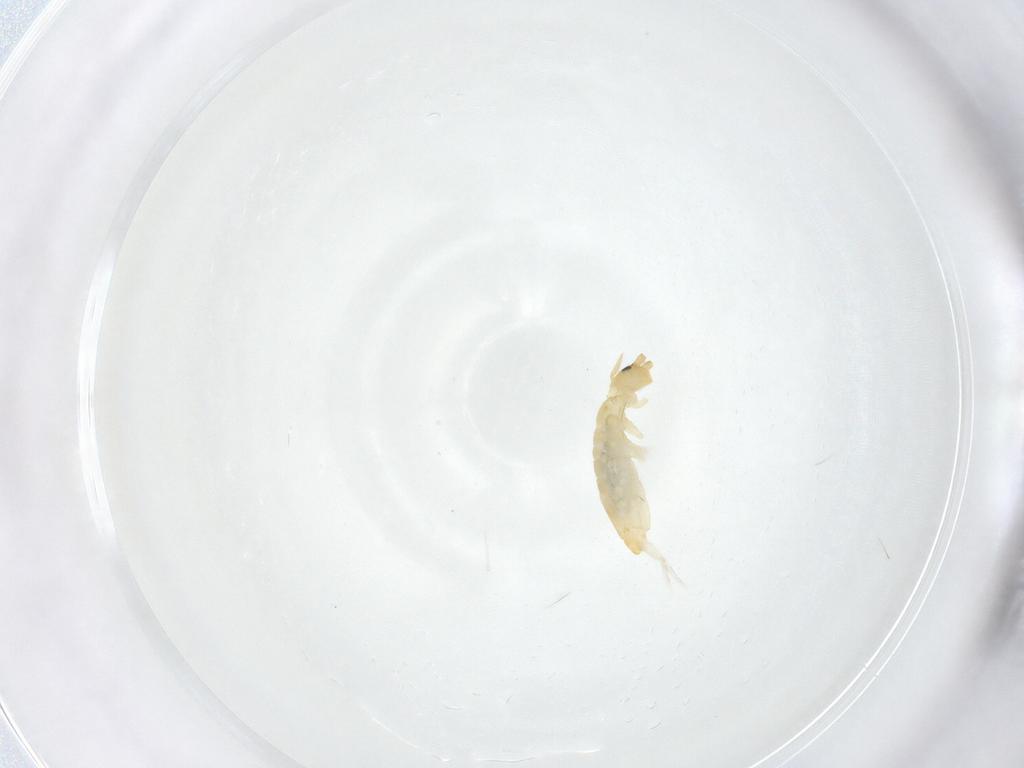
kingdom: Animalia
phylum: Arthropoda
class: Collembola
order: Entomobryomorpha
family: Entomobryidae
